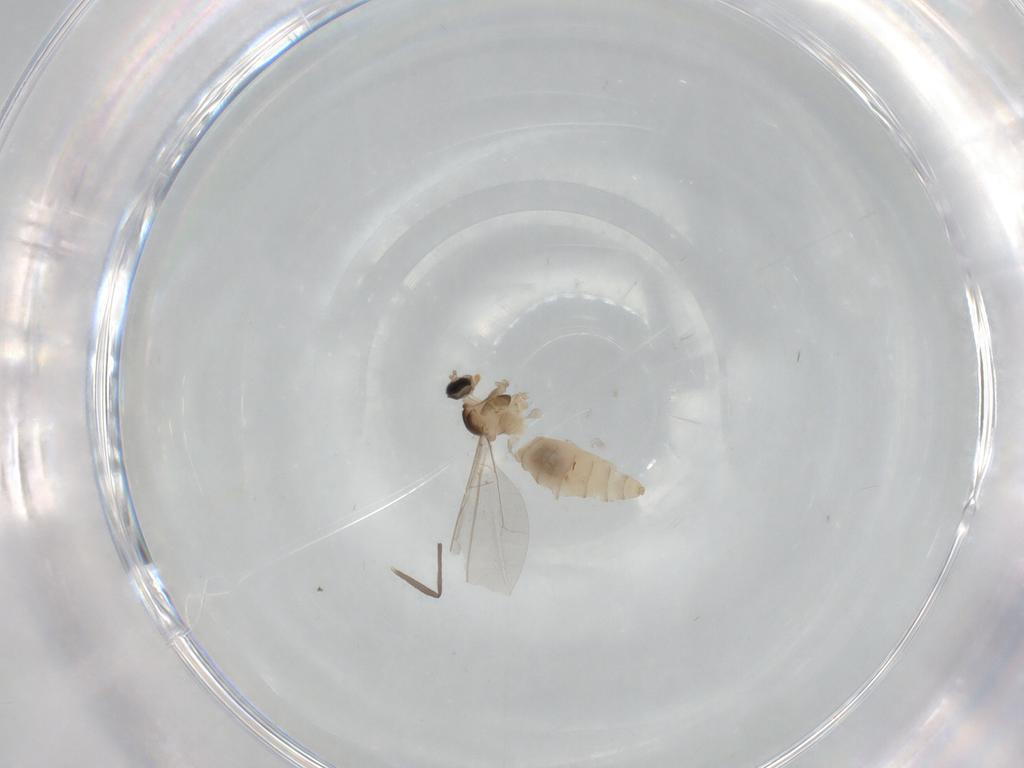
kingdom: Animalia
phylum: Arthropoda
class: Insecta
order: Diptera
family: Cecidomyiidae
